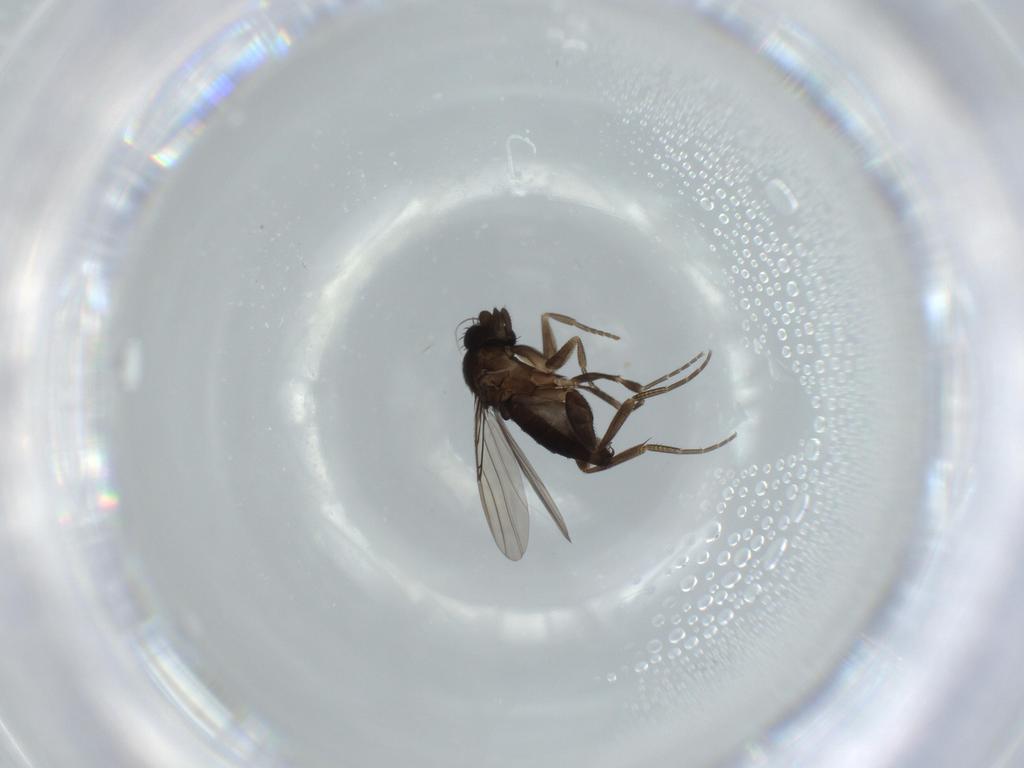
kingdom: Animalia
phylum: Arthropoda
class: Insecta
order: Diptera
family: Phoridae
